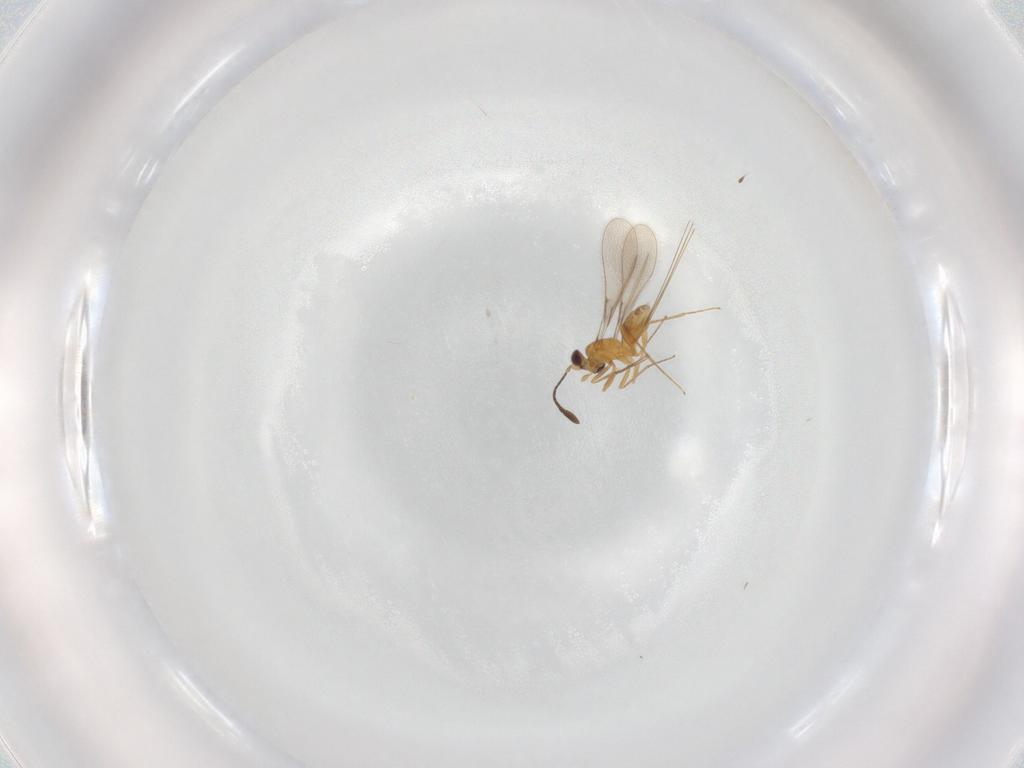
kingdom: Animalia
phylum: Arthropoda
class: Insecta
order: Hymenoptera
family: Mymaridae
